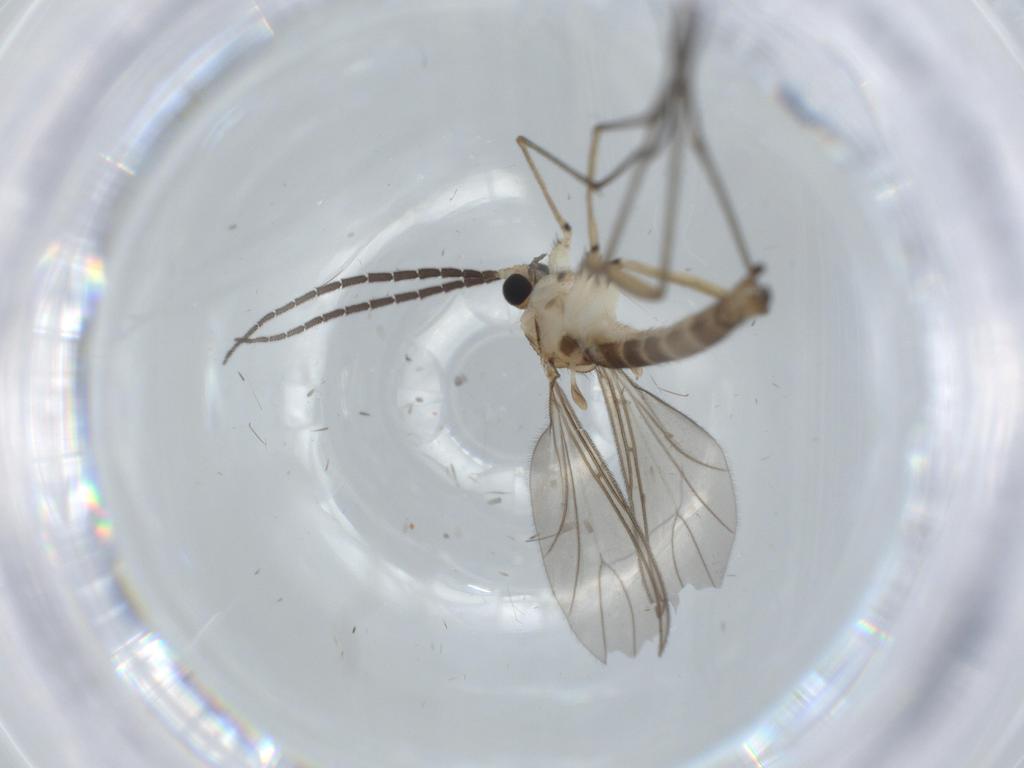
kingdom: Animalia
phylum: Arthropoda
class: Insecta
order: Diptera
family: Sciaridae
